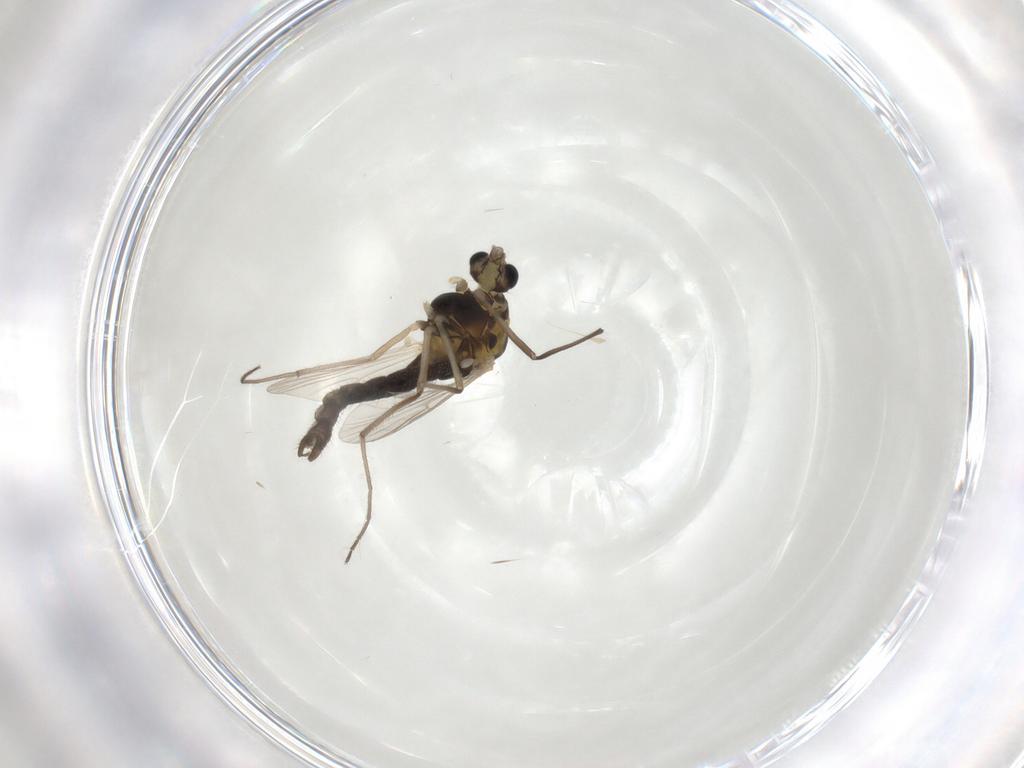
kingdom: Animalia
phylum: Arthropoda
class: Insecta
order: Diptera
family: Chironomidae
